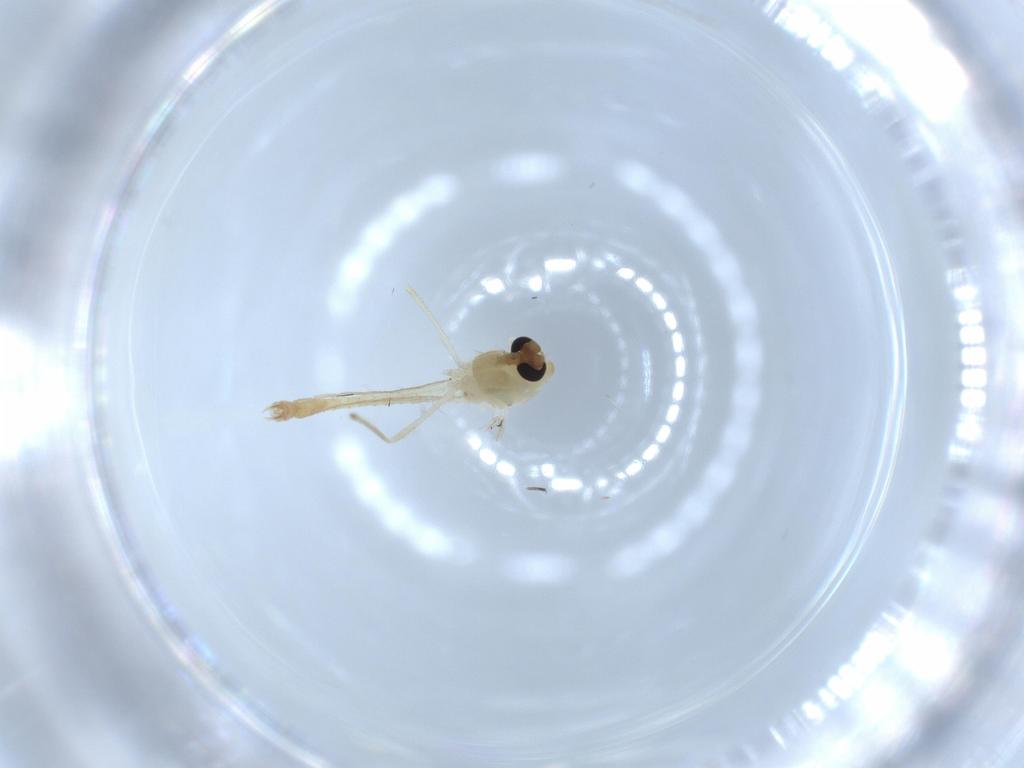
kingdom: Animalia
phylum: Arthropoda
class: Insecta
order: Diptera
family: Chironomidae
